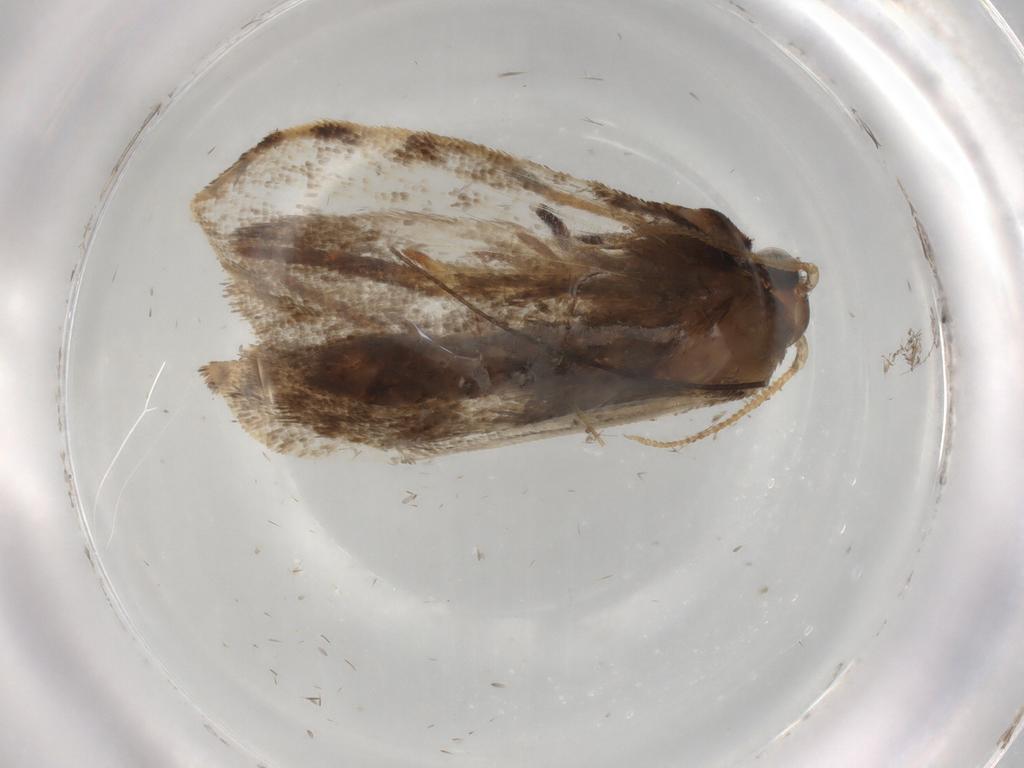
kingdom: Animalia
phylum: Arthropoda
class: Insecta
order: Lepidoptera
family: Tineidae
